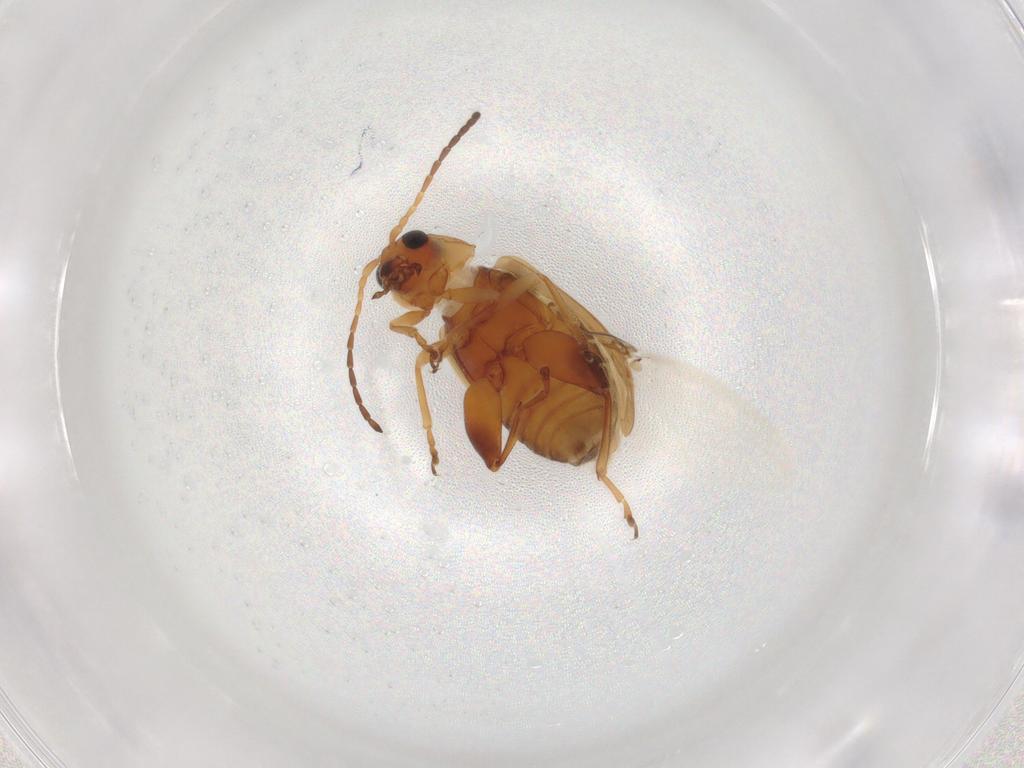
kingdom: Animalia
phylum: Arthropoda
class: Insecta
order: Coleoptera
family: Chrysomelidae
